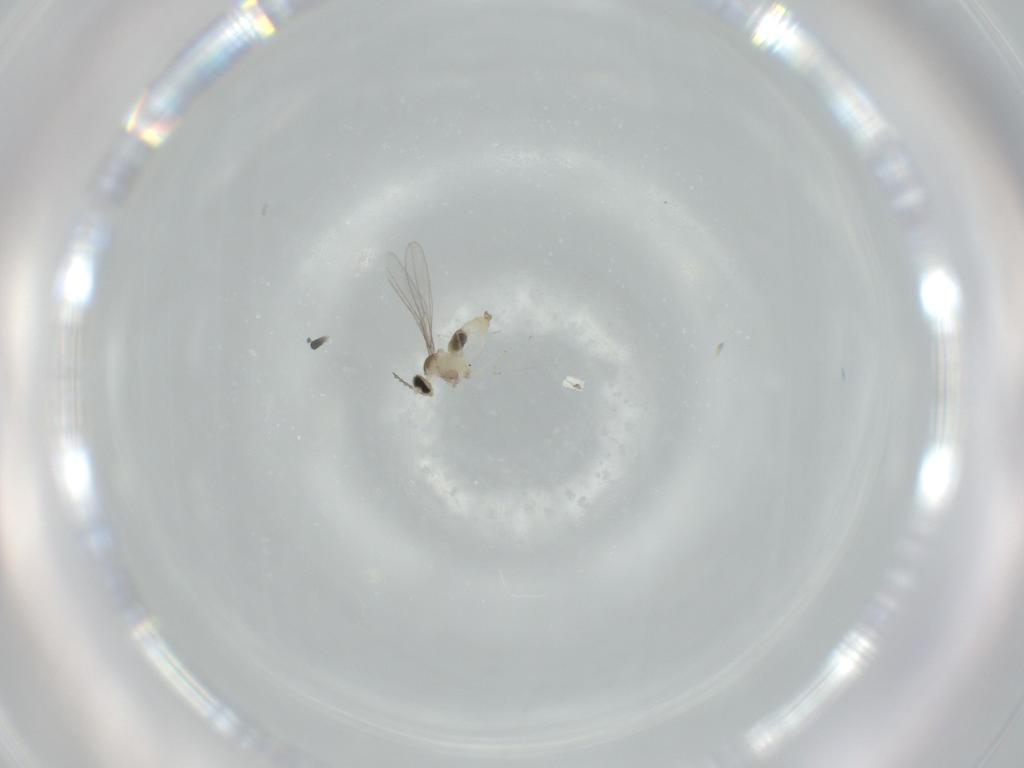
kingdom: Animalia
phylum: Arthropoda
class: Insecta
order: Diptera
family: Cecidomyiidae
